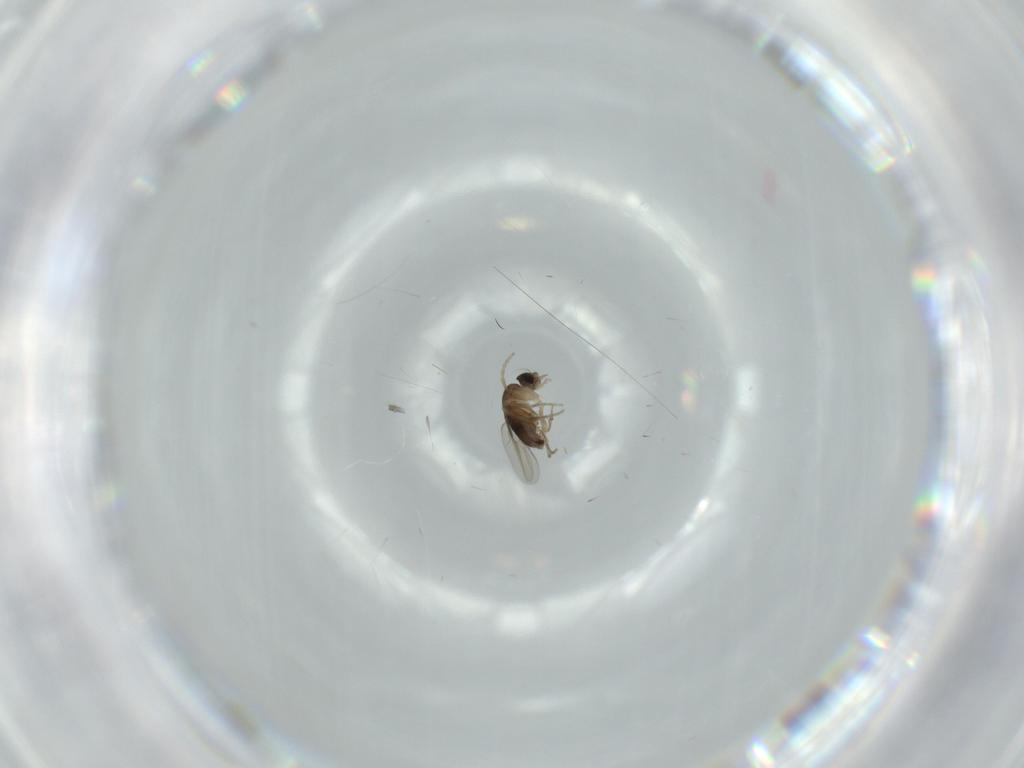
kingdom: Animalia
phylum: Arthropoda
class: Insecta
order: Diptera
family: Phoridae
